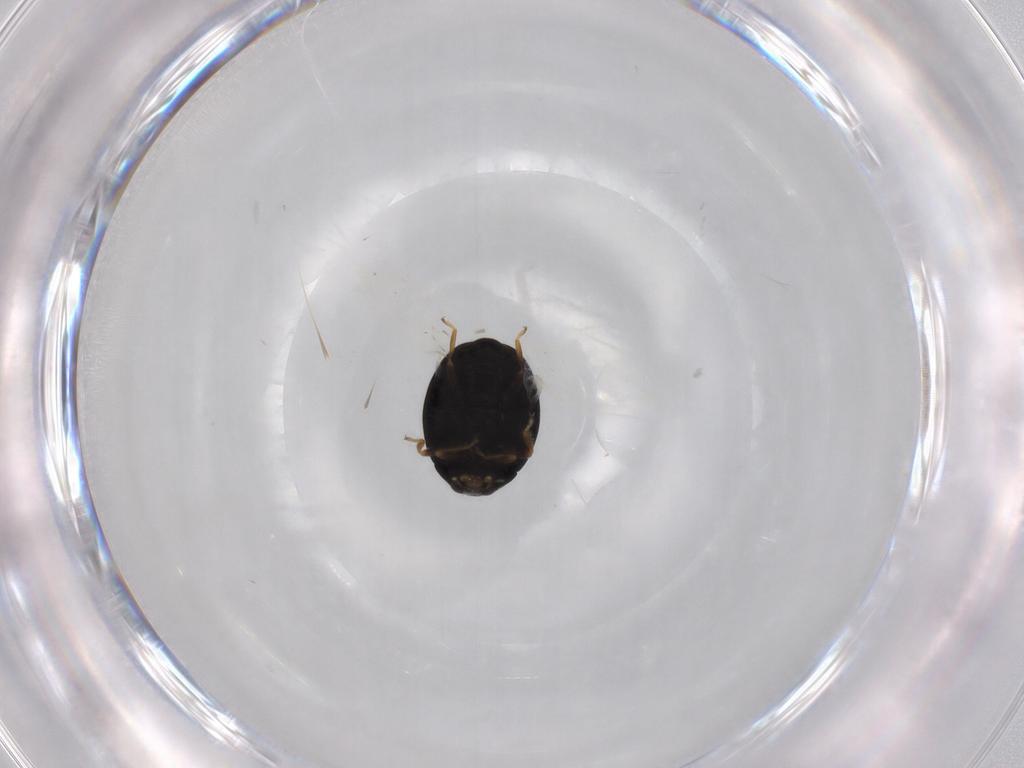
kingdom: Animalia
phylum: Arthropoda
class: Insecta
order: Coleoptera
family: Coccinellidae
